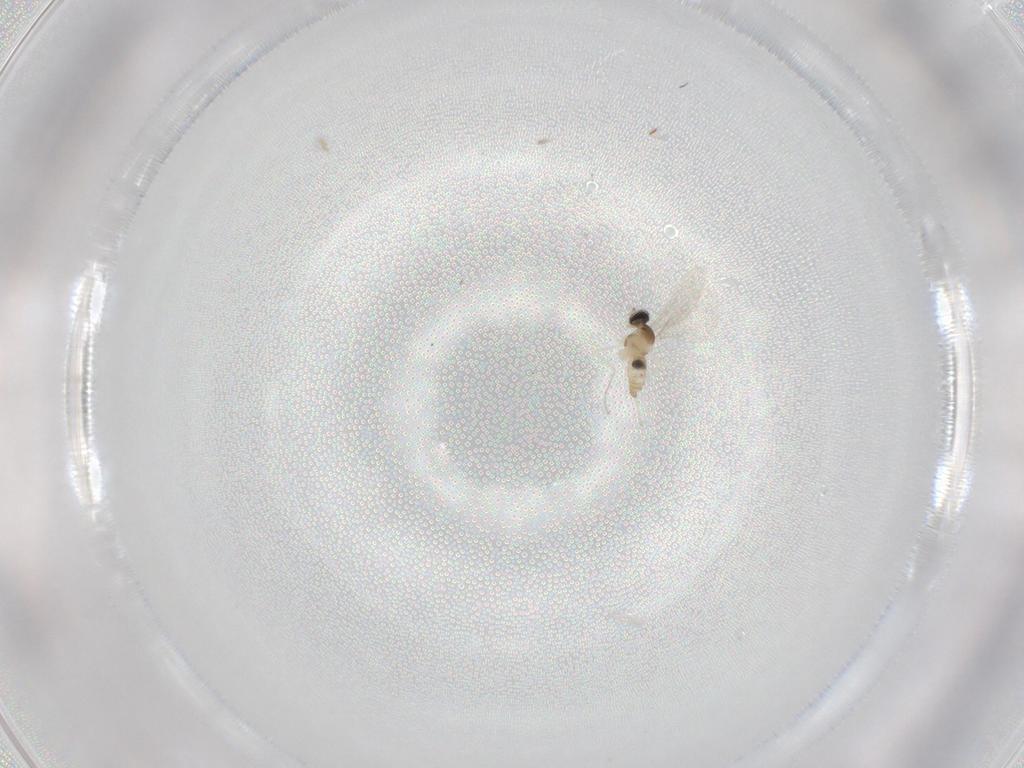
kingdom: Animalia
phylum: Arthropoda
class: Insecta
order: Diptera
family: Cecidomyiidae
